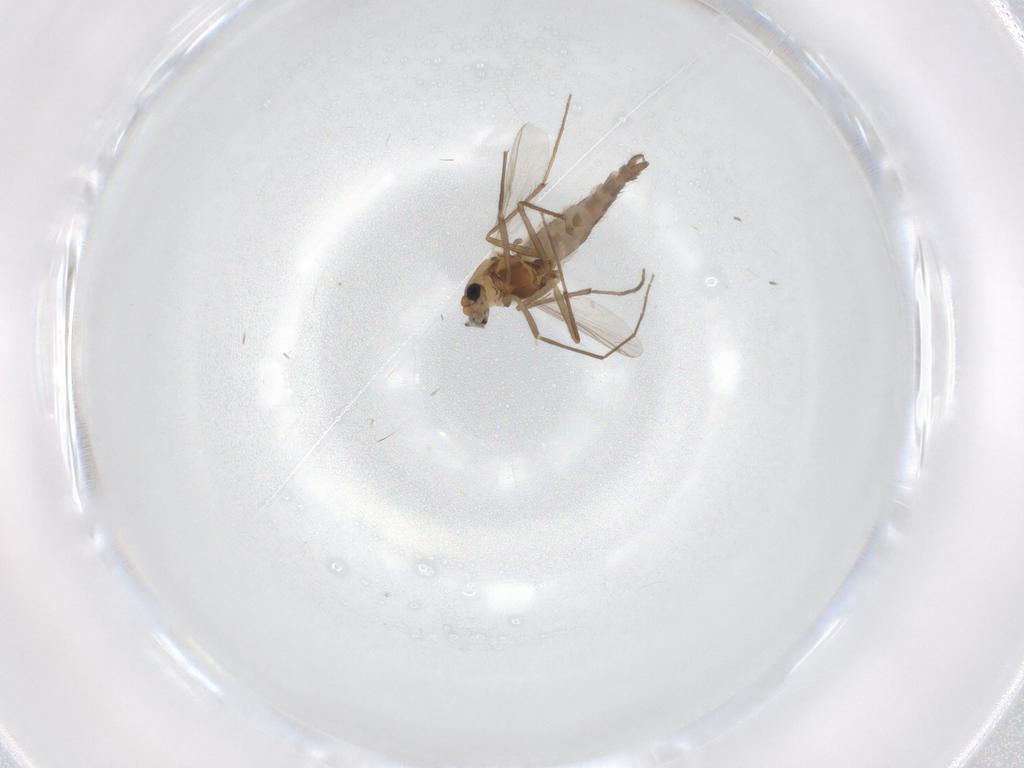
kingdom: Animalia
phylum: Arthropoda
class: Insecta
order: Diptera
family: Chironomidae
